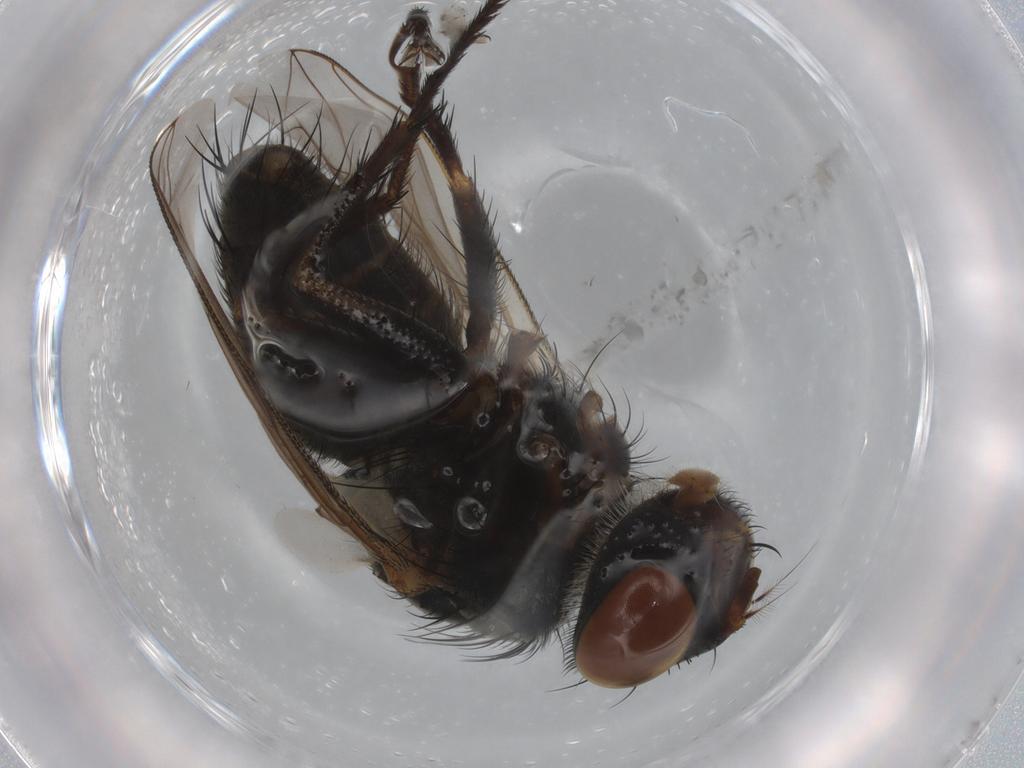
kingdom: Animalia
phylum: Arthropoda
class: Insecta
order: Diptera
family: Sarcophagidae
